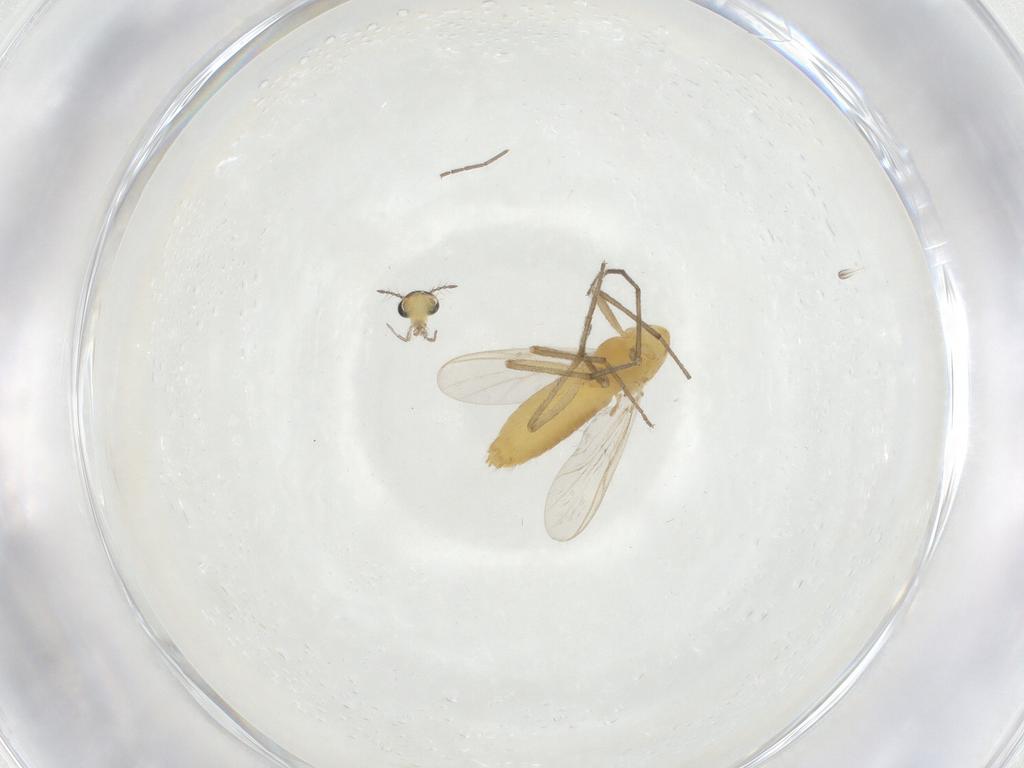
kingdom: Animalia
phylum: Arthropoda
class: Insecta
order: Diptera
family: Chironomidae
